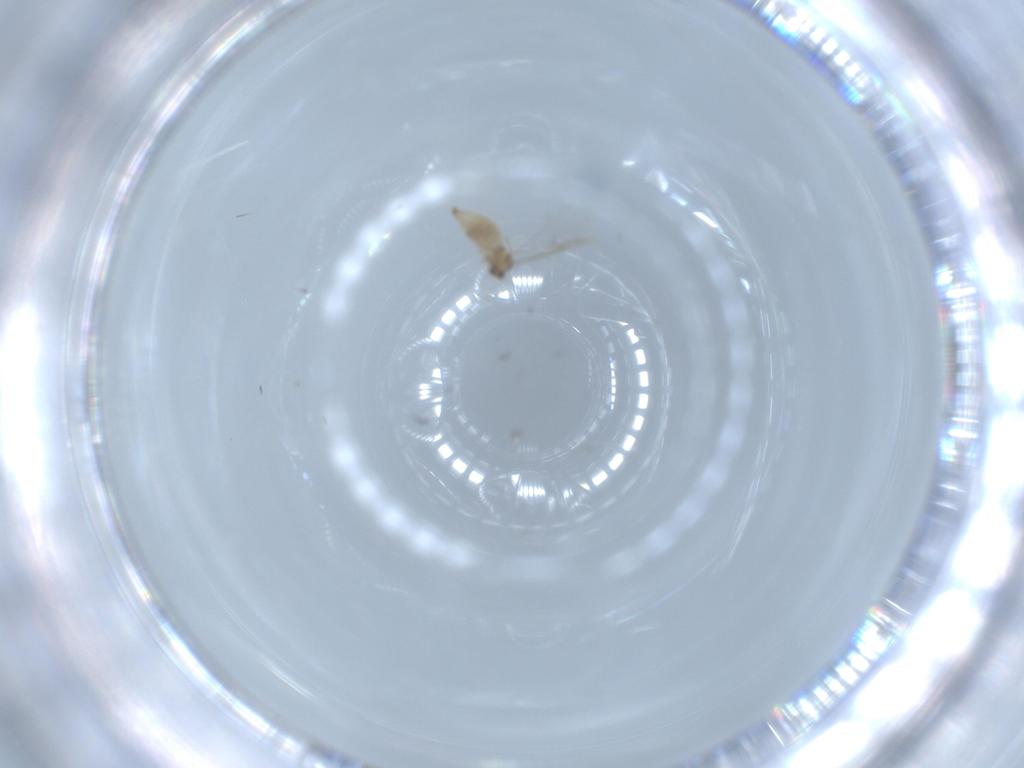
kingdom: Animalia
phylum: Arthropoda
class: Insecta
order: Diptera
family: Cecidomyiidae
